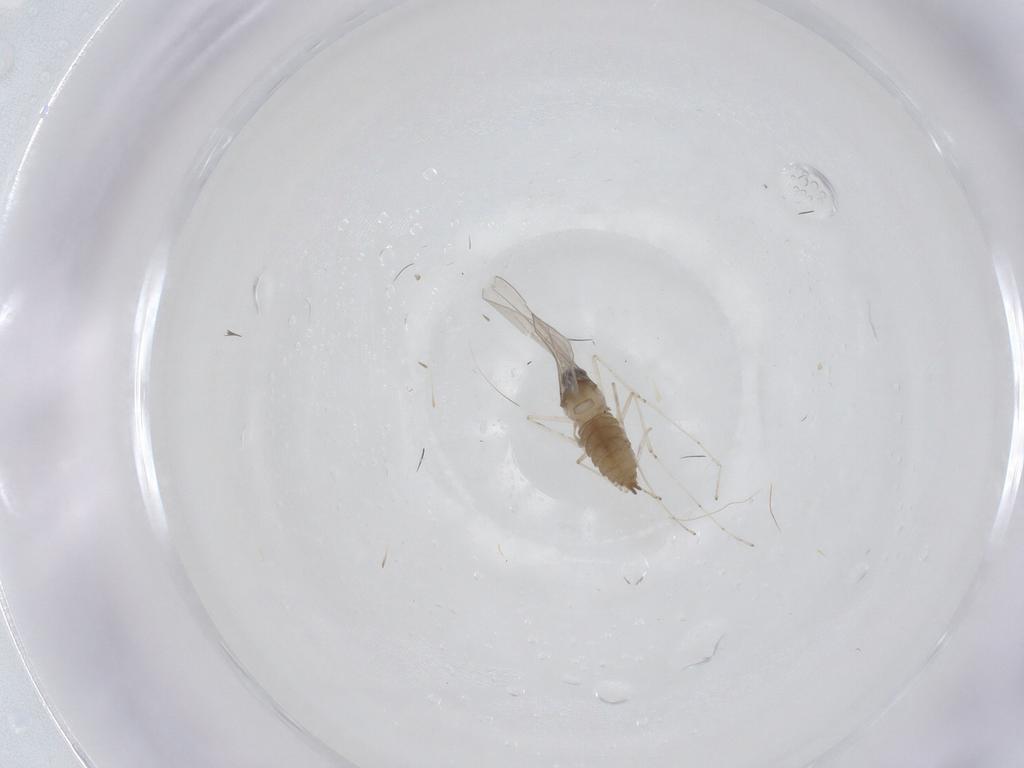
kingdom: Animalia
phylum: Arthropoda
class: Insecta
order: Diptera
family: Cecidomyiidae
